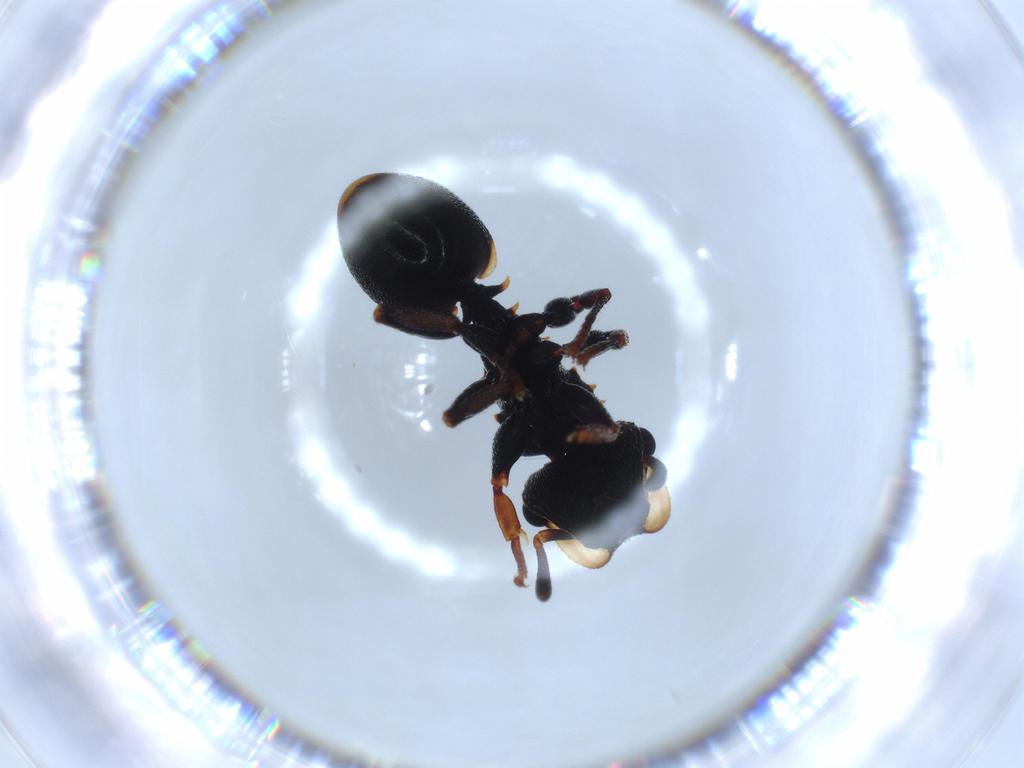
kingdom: Animalia
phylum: Arthropoda
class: Insecta
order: Hymenoptera
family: Formicidae
